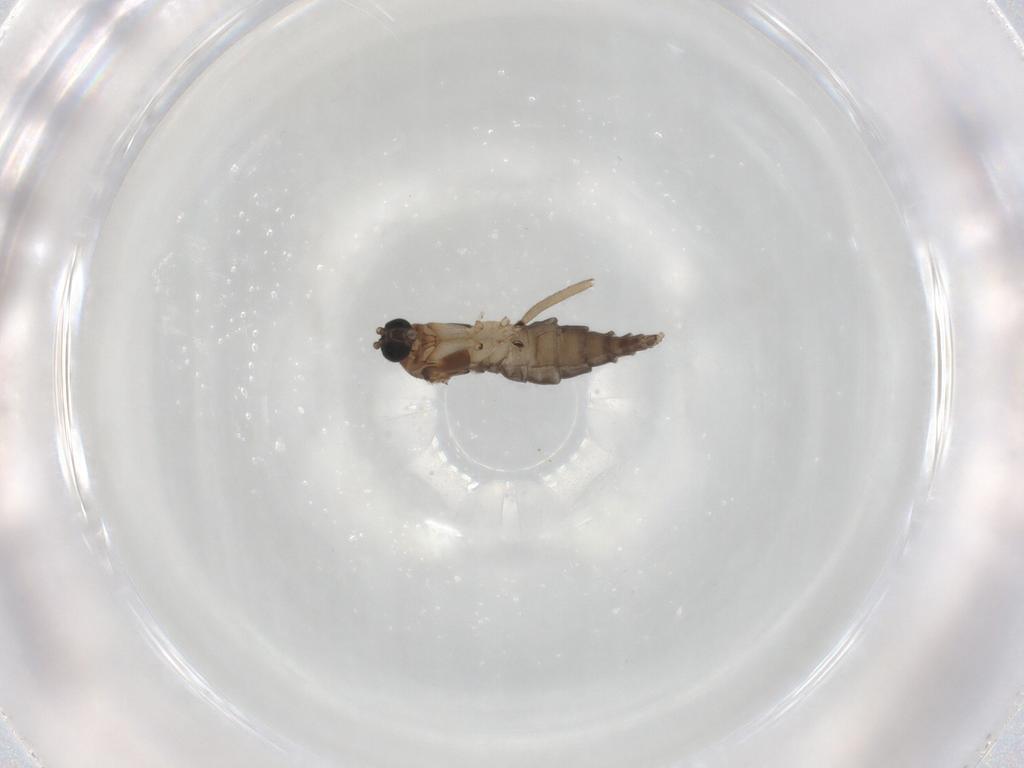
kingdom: Animalia
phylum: Arthropoda
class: Insecta
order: Diptera
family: Sciaridae
